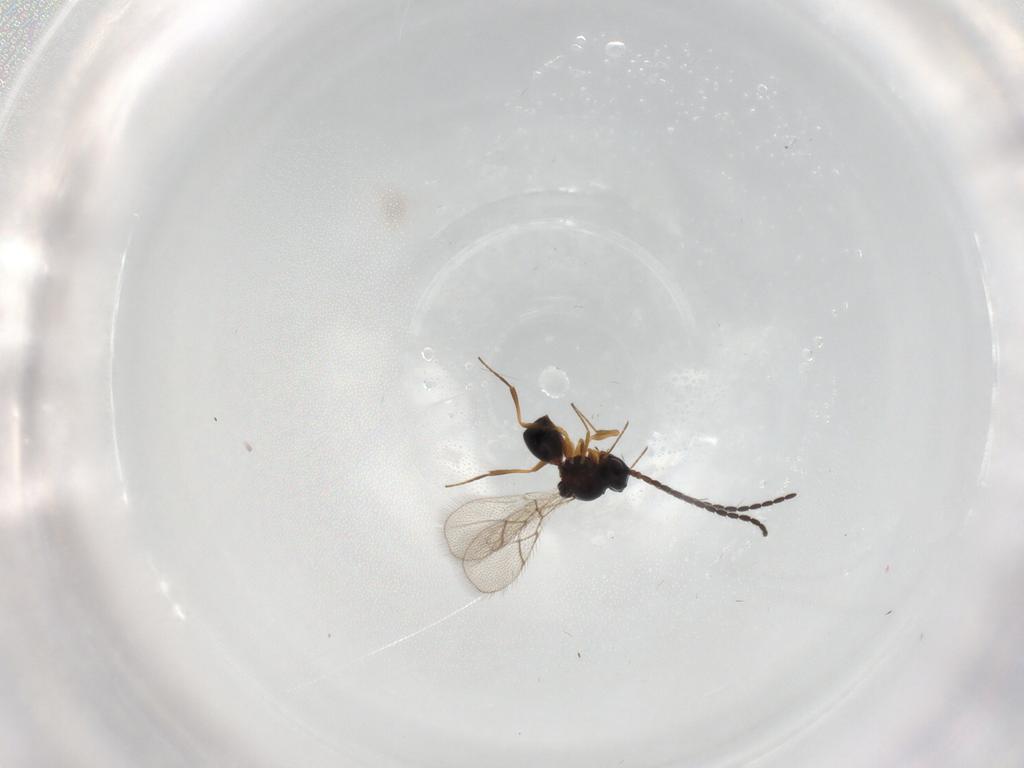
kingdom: Animalia
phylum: Arthropoda
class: Insecta
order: Hymenoptera
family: Figitidae
